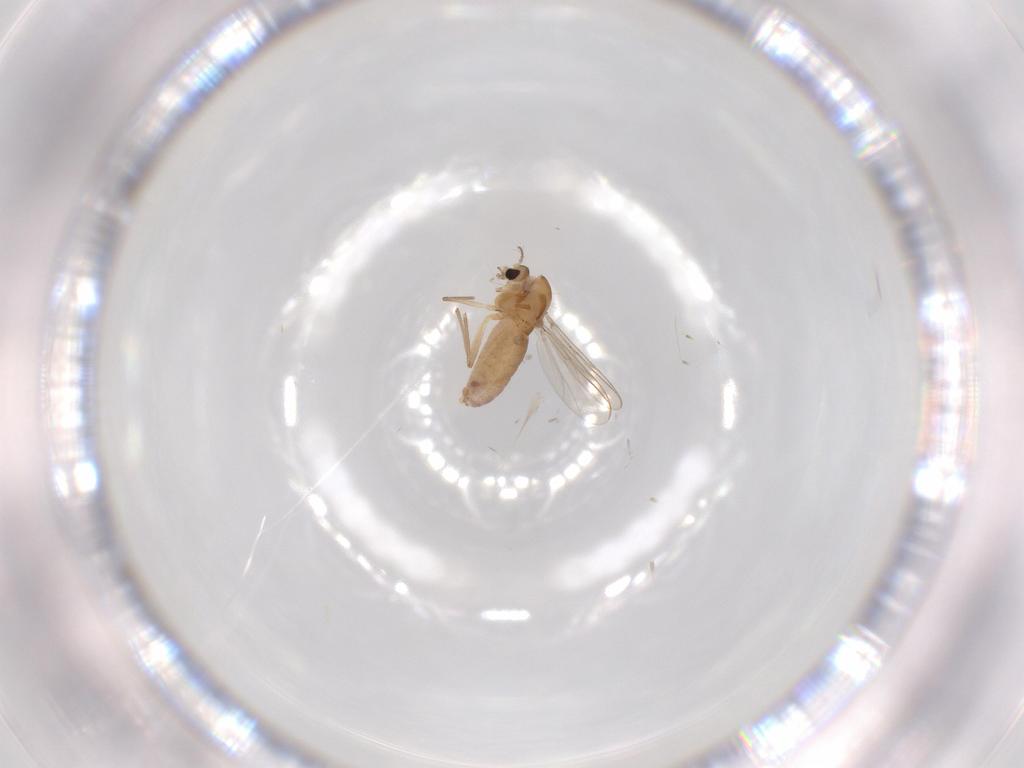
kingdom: Animalia
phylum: Arthropoda
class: Insecta
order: Diptera
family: Chironomidae
